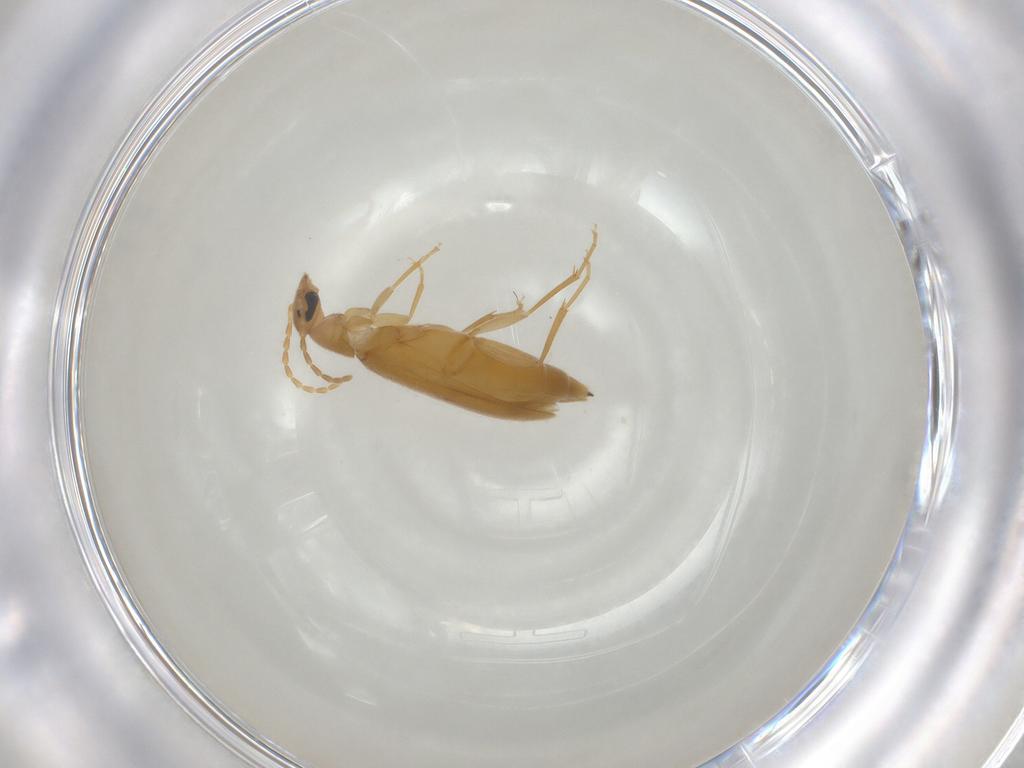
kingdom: Animalia
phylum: Arthropoda
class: Insecta
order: Coleoptera
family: Scraptiidae
